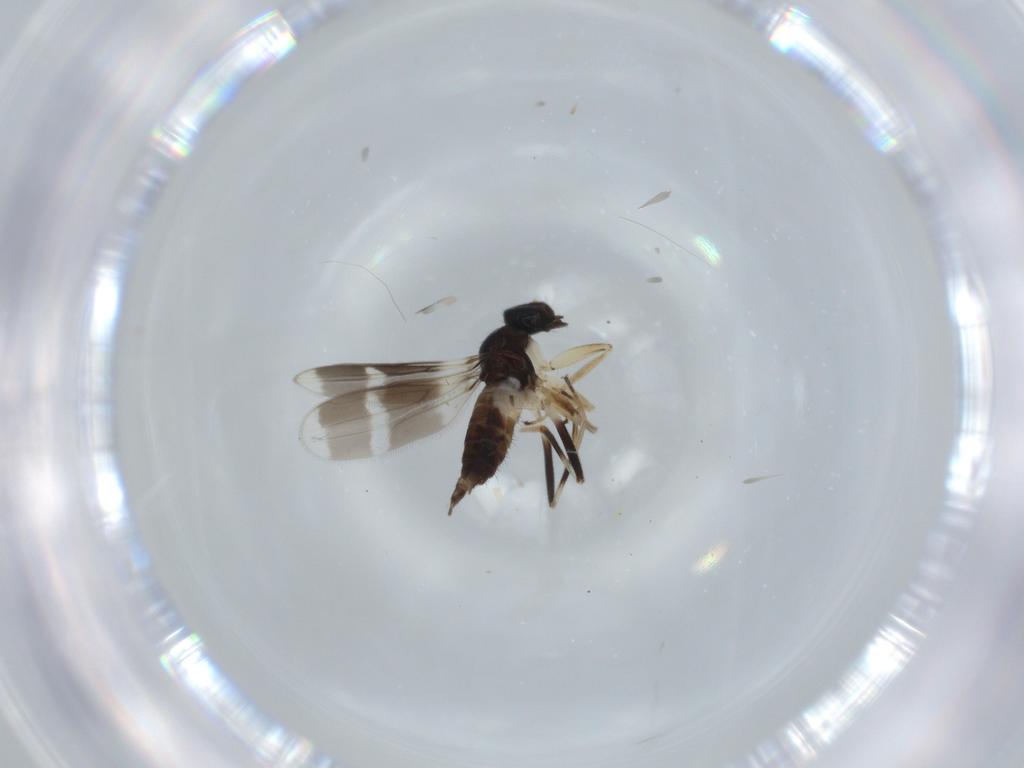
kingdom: Animalia
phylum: Arthropoda
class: Insecta
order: Diptera
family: Hybotidae
